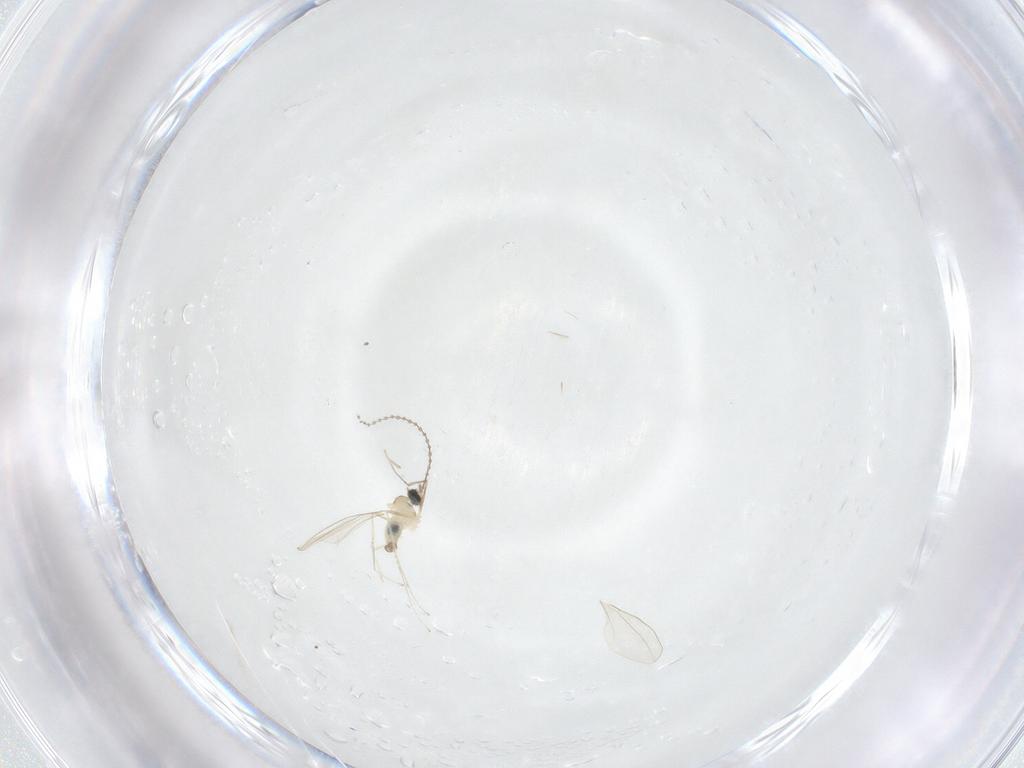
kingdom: Animalia
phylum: Arthropoda
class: Insecta
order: Diptera
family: Cecidomyiidae
